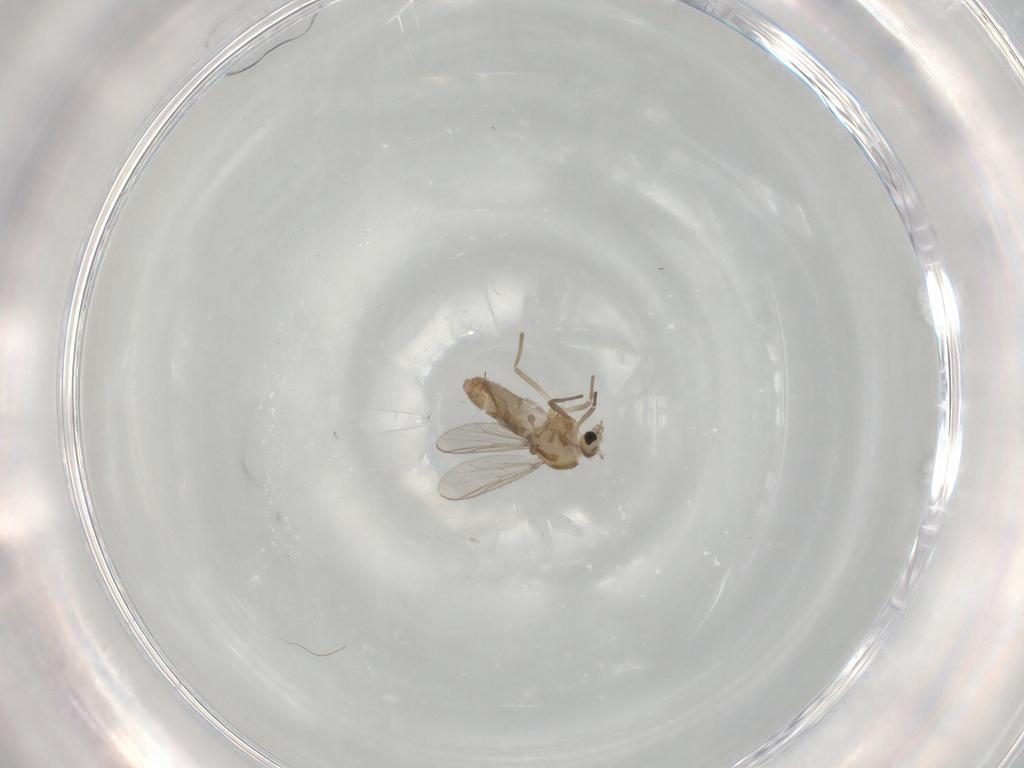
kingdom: Animalia
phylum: Arthropoda
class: Insecta
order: Diptera
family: Chironomidae
